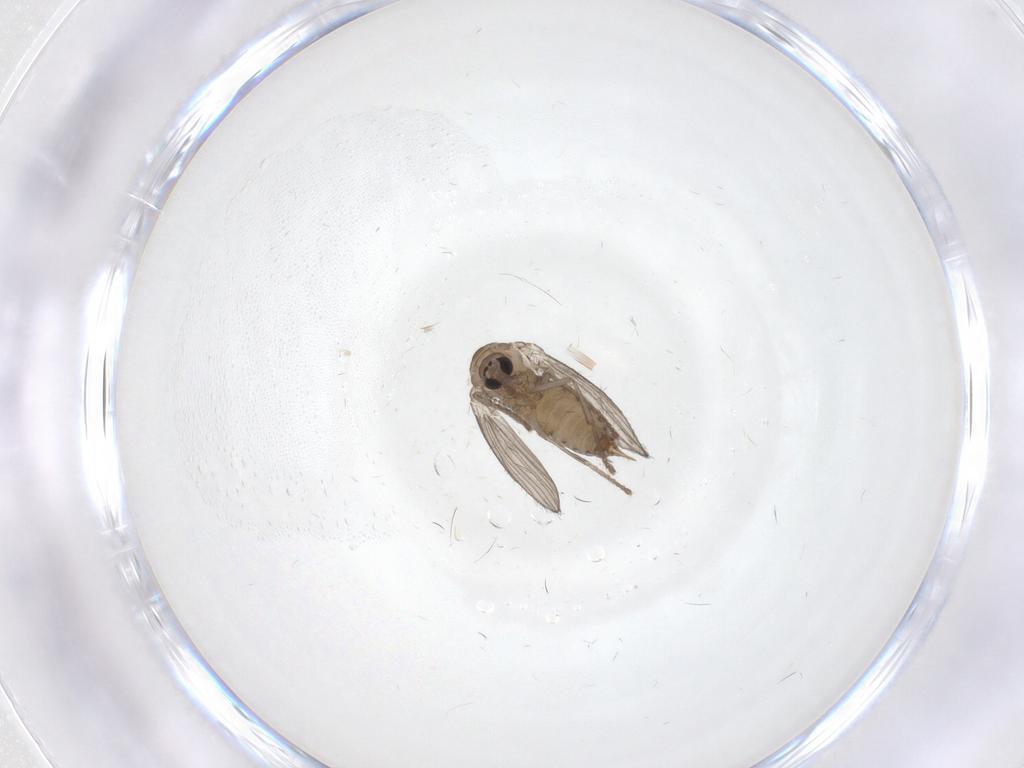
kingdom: Animalia
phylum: Arthropoda
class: Insecta
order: Diptera
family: Psychodidae
